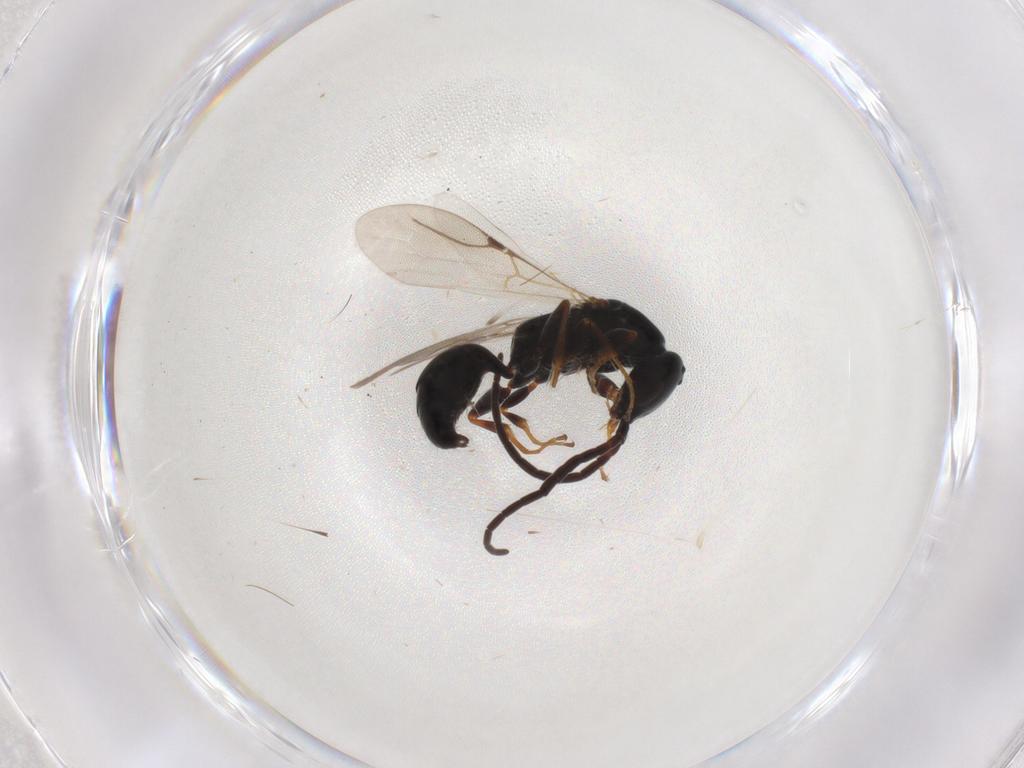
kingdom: Animalia
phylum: Arthropoda
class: Insecta
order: Hymenoptera
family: Bethylidae
